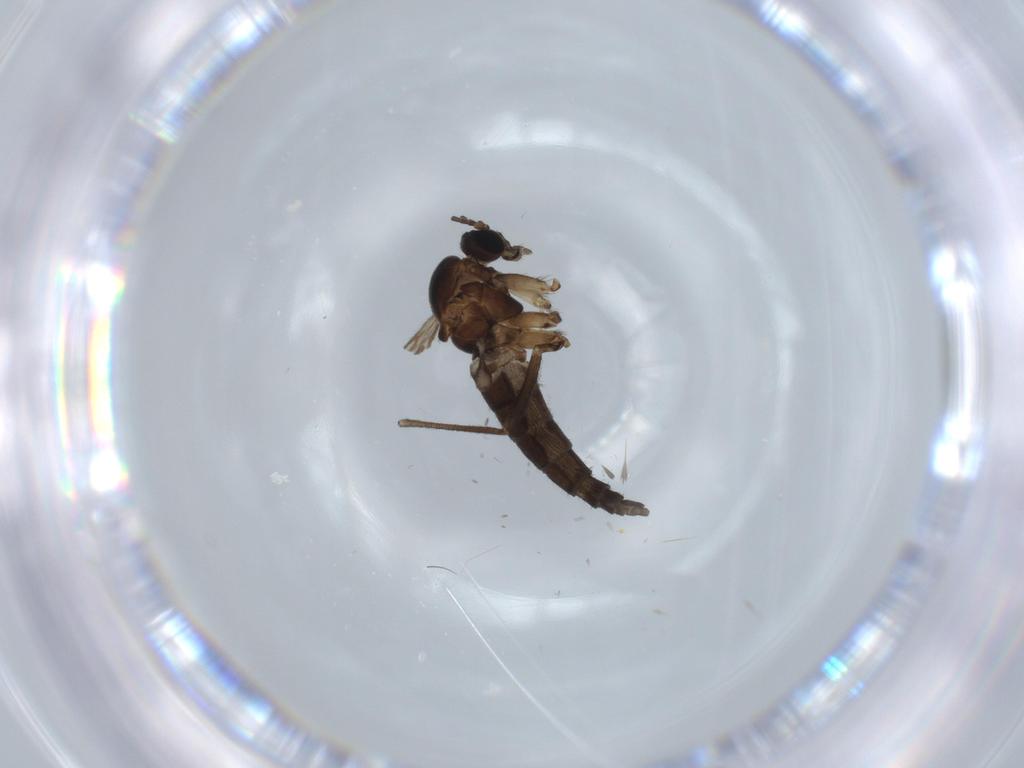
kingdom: Animalia
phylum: Arthropoda
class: Insecta
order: Diptera
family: Sciaridae
